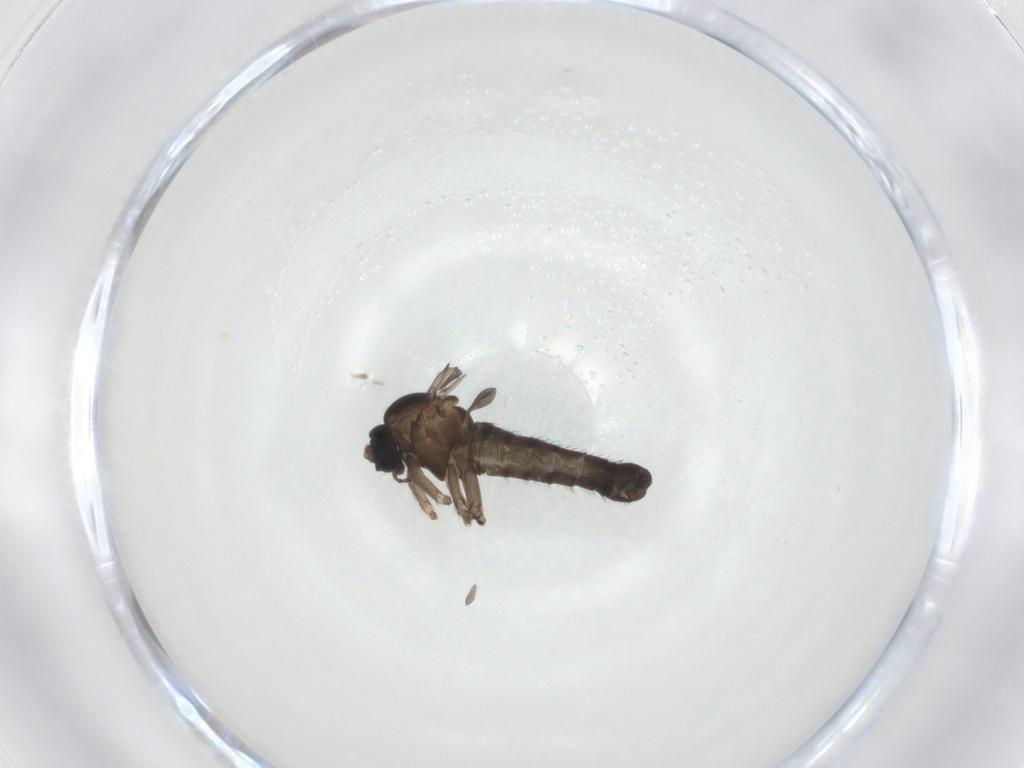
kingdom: Animalia
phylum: Arthropoda
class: Insecta
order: Diptera
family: Sciaridae
